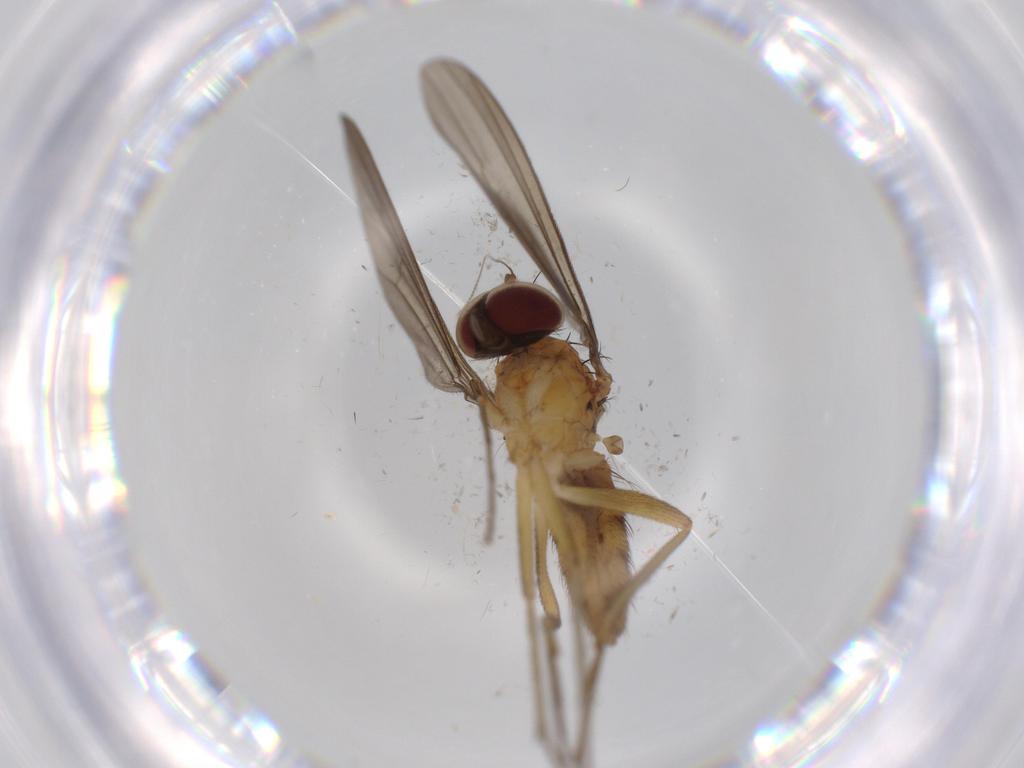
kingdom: Animalia
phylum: Arthropoda
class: Insecta
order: Diptera
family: Dolichopodidae
